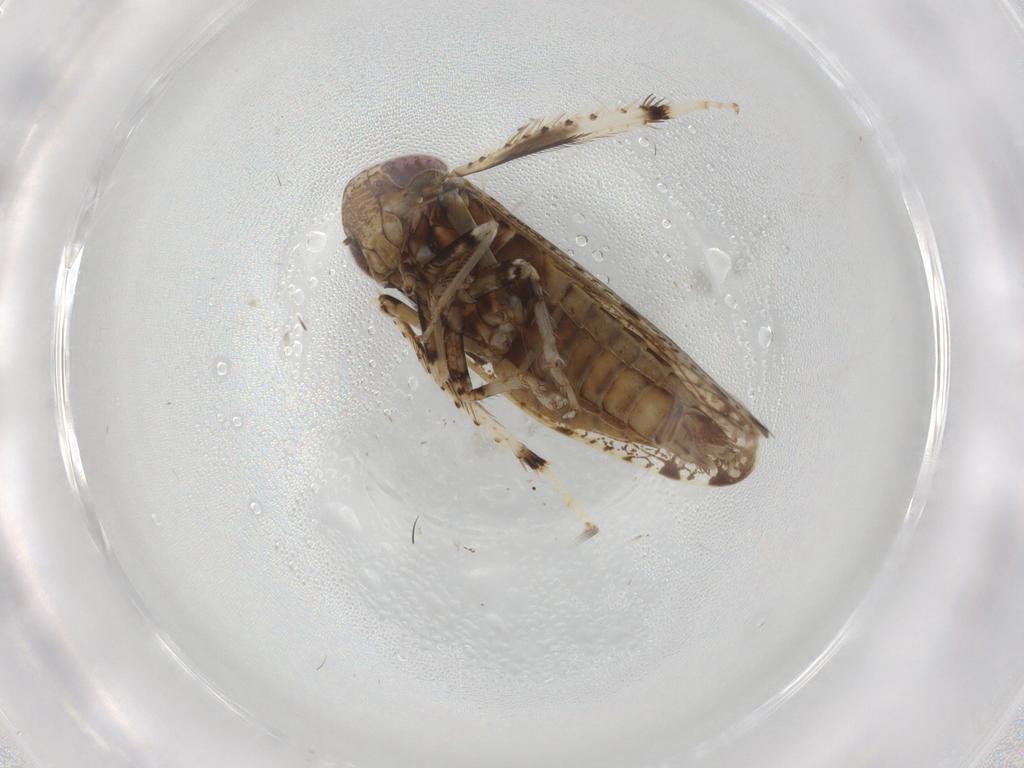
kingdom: Animalia
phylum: Arthropoda
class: Insecta
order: Hemiptera
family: Cicadellidae
